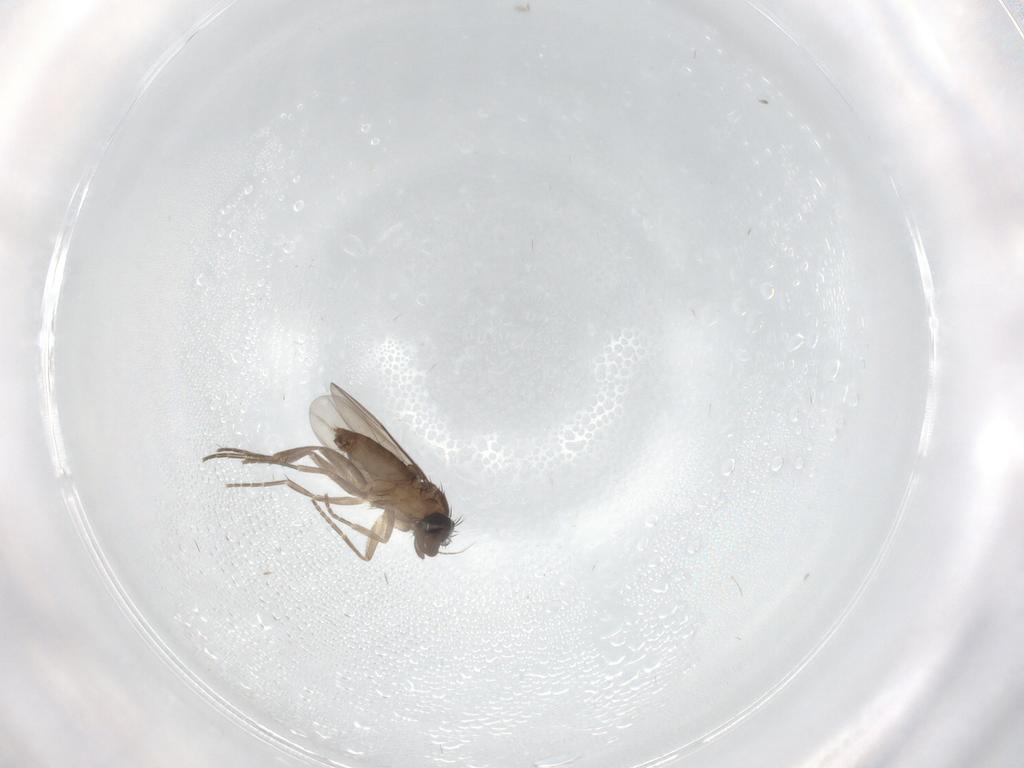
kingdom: Animalia
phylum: Arthropoda
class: Insecta
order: Diptera
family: Phoridae
